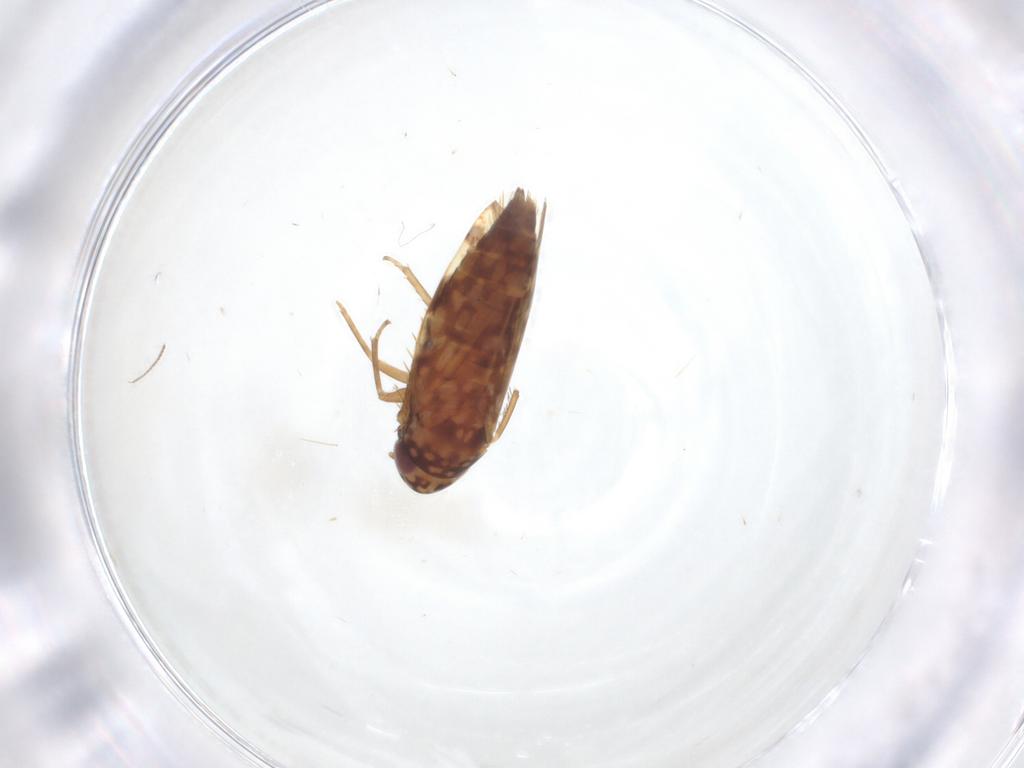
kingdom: Animalia
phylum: Arthropoda
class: Insecta
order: Hemiptera
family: Cicadellidae
